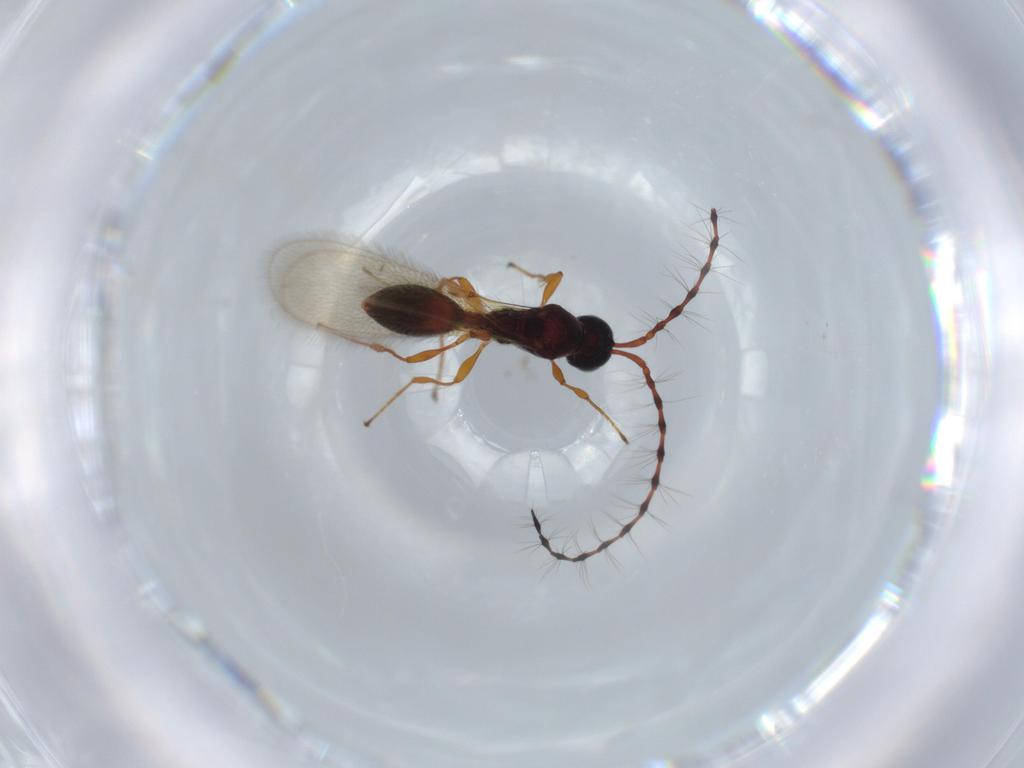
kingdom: Animalia
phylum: Arthropoda
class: Insecta
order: Hymenoptera
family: Diapriidae
